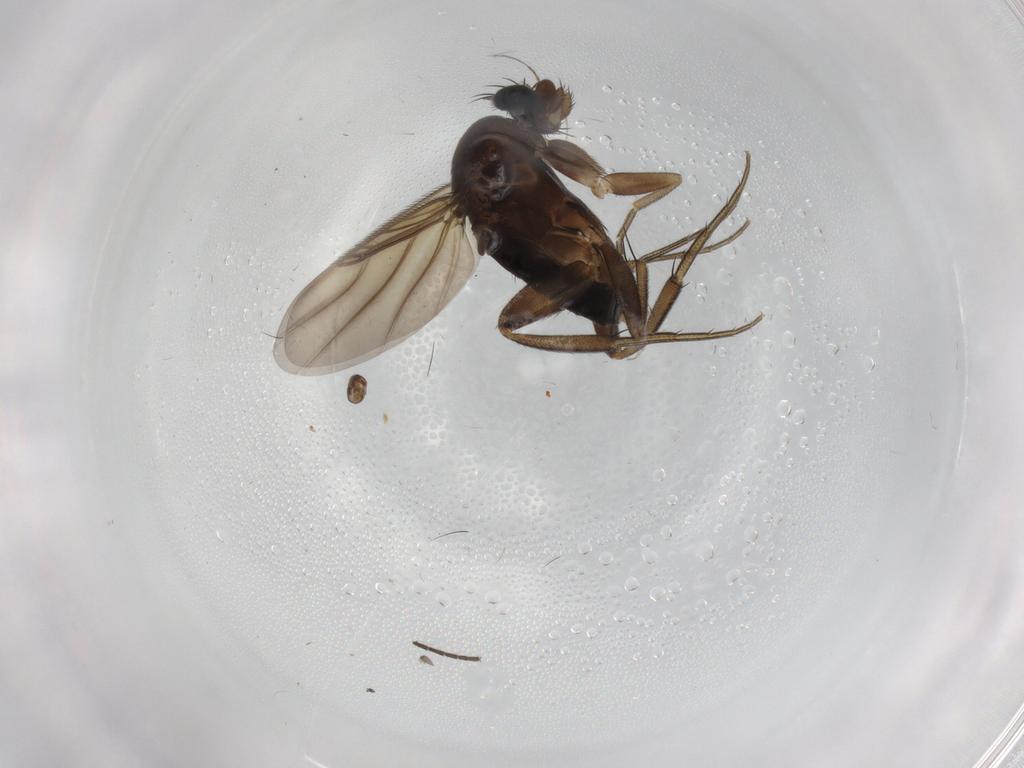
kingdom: Animalia
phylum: Arthropoda
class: Insecta
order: Diptera
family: Phoridae
